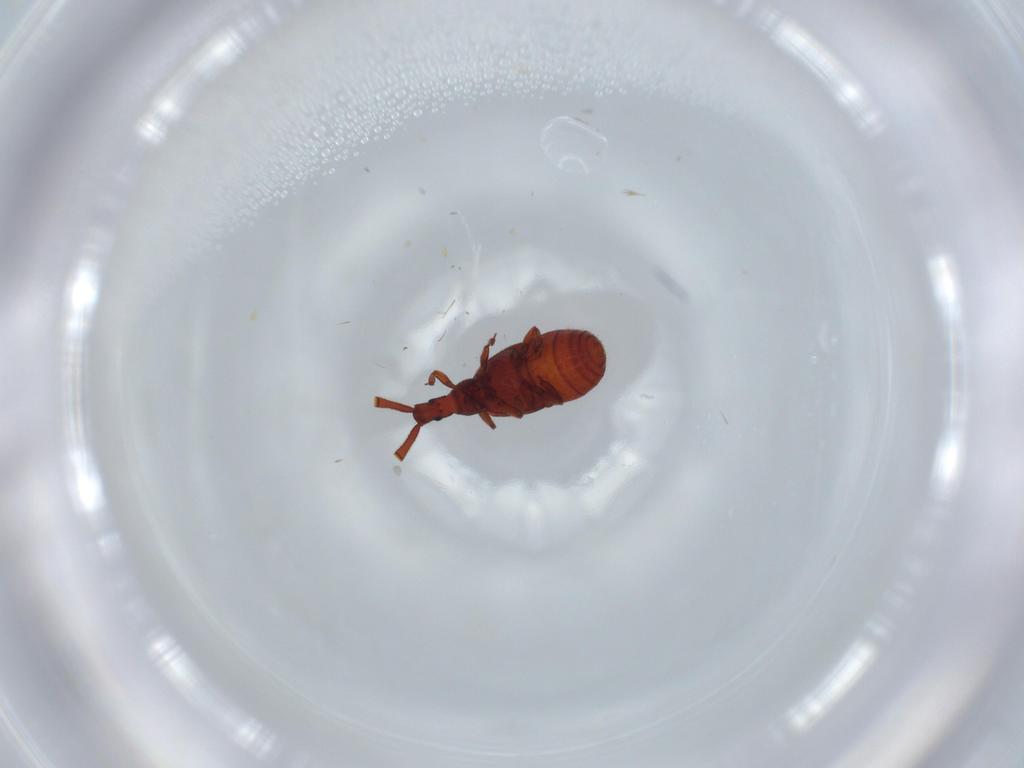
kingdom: Animalia
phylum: Arthropoda
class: Insecta
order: Coleoptera
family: Staphylinidae
